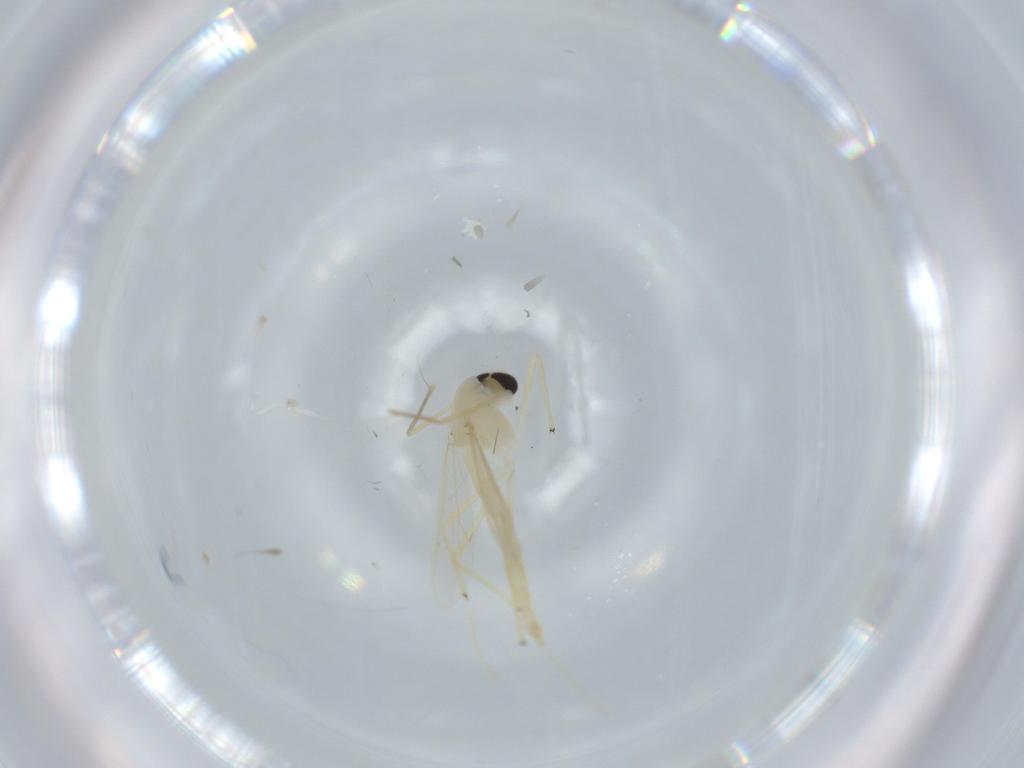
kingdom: Animalia
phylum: Arthropoda
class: Insecta
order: Diptera
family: Chironomidae
